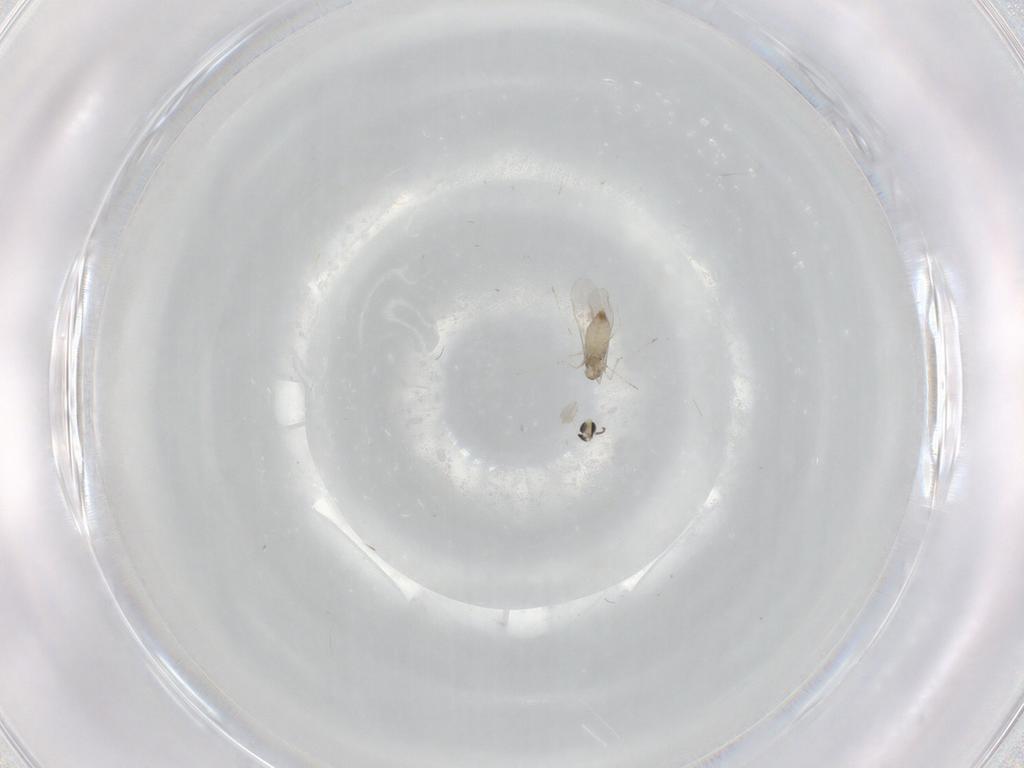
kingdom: Animalia
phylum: Arthropoda
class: Insecta
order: Diptera
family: Cecidomyiidae
